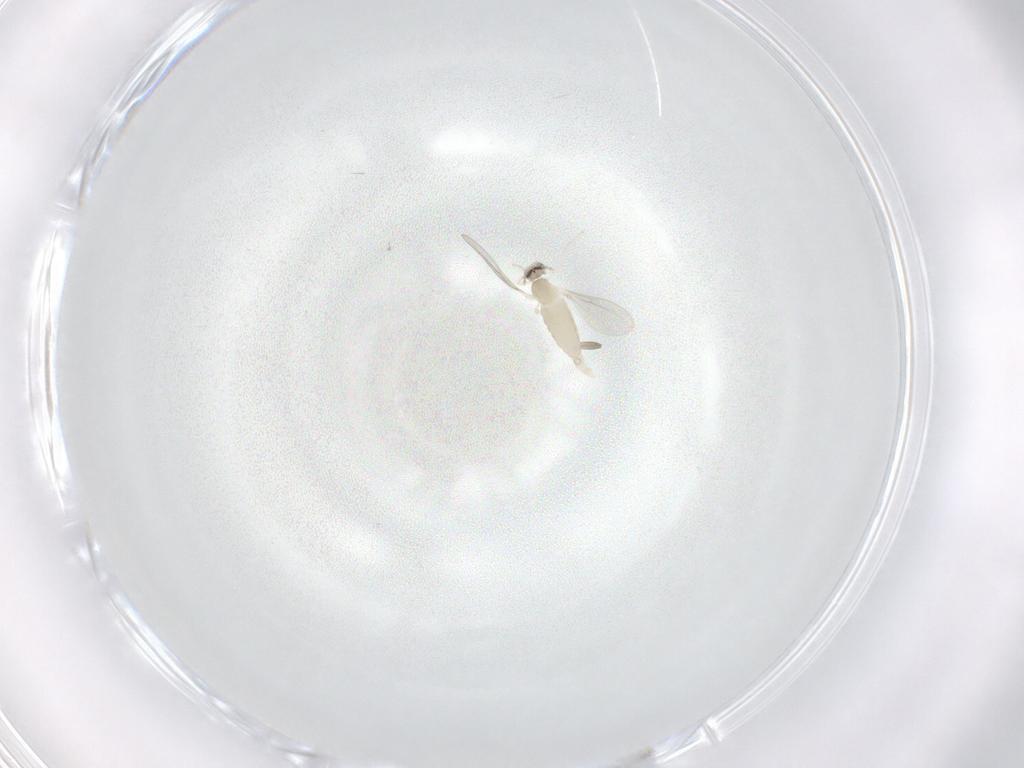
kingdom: Animalia
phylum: Arthropoda
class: Insecta
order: Diptera
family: Cecidomyiidae
